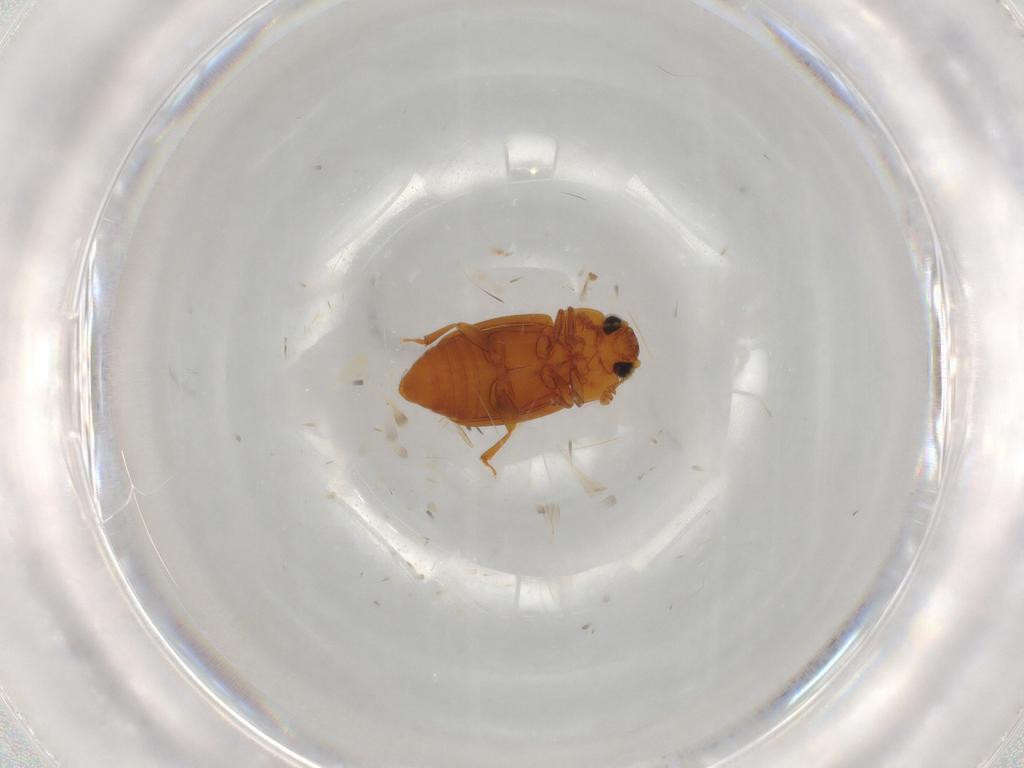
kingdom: Animalia
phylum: Arthropoda
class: Insecta
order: Coleoptera
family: Nitidulidae
